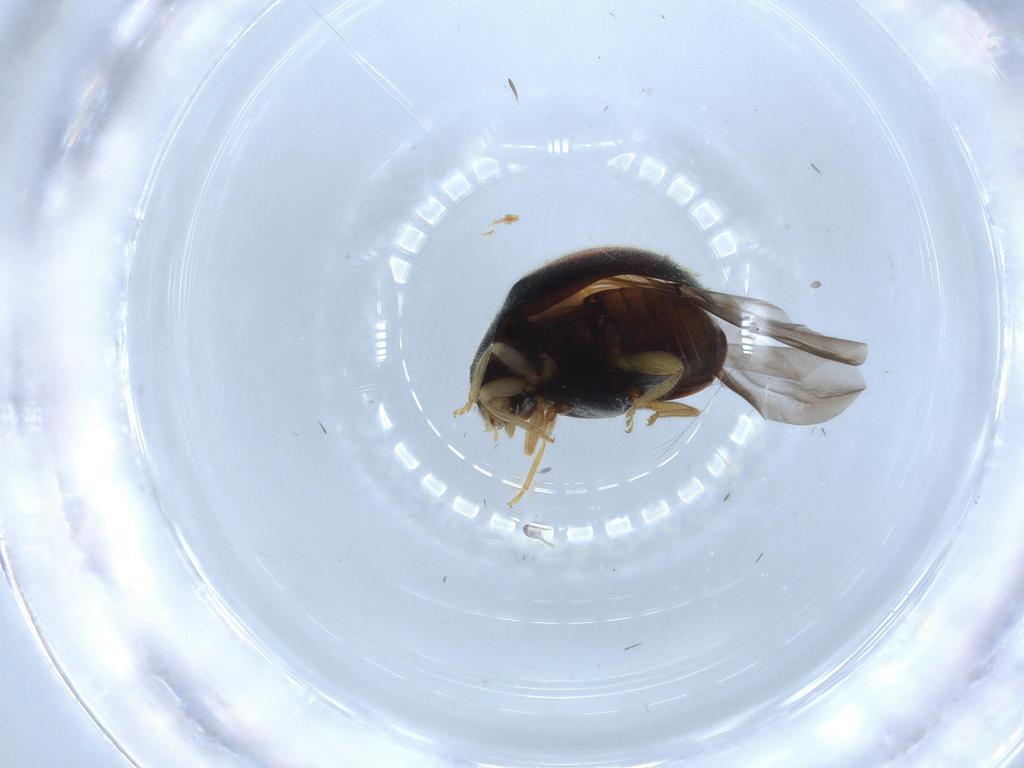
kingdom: Animalia
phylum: Arthropoda
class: Insecta
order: Coleoptera
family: Coccinellidae
